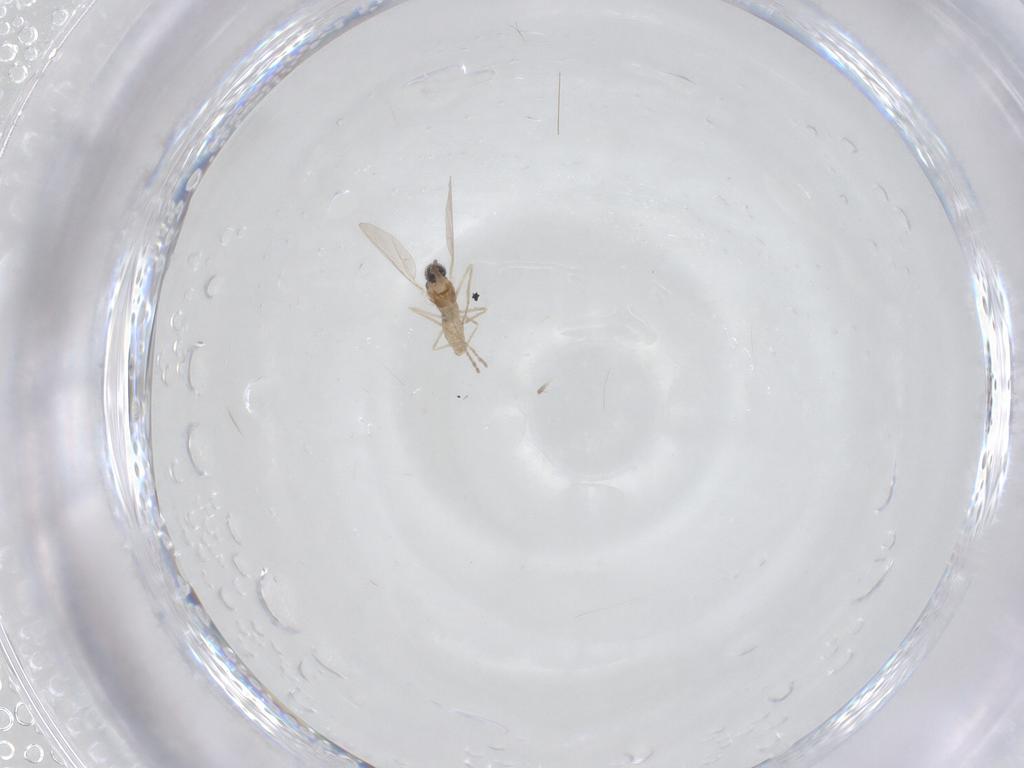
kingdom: Animalia
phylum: Arthropoda
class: Insecta
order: Diptera
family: Cecidomyiidae
